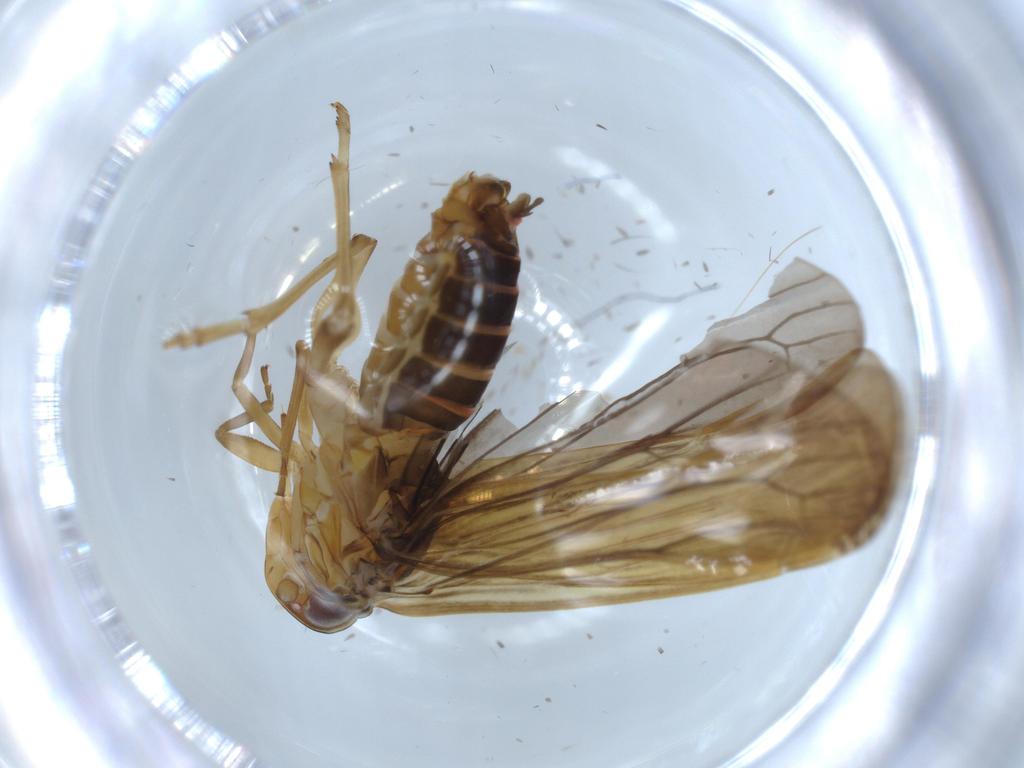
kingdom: Animalia
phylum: Arthropoda
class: Insecta
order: Hemiptera
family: Achilidae
